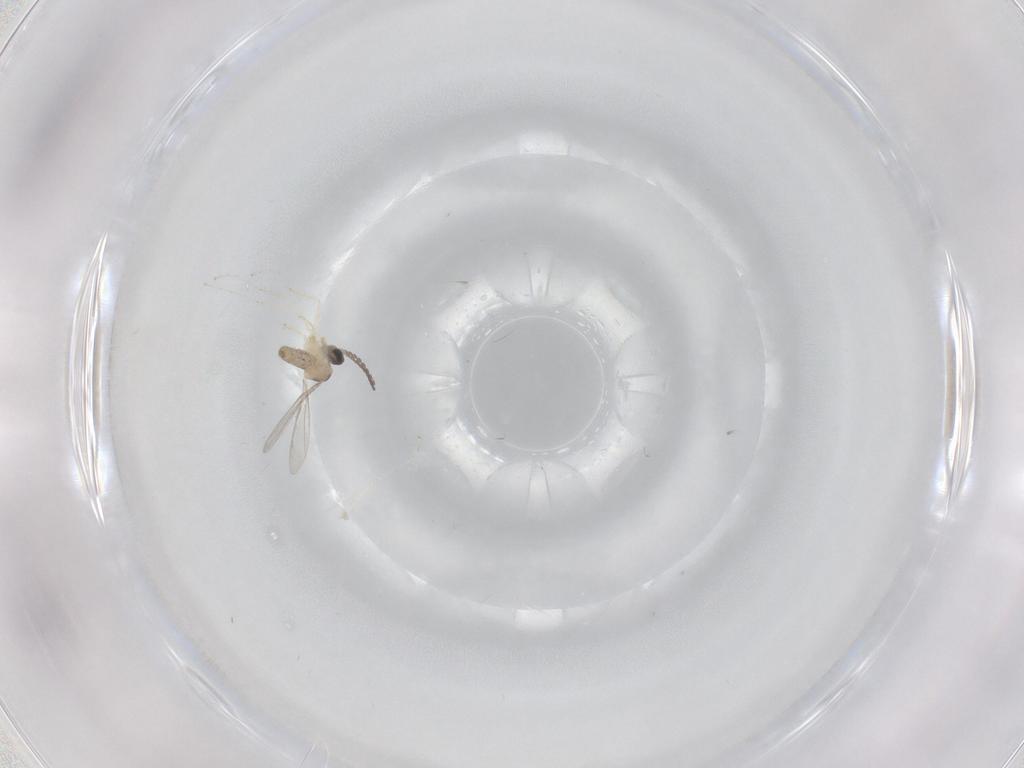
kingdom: Animalia
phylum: Arthropoda
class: Insecta
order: Diptera
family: Cecidomyiidae
